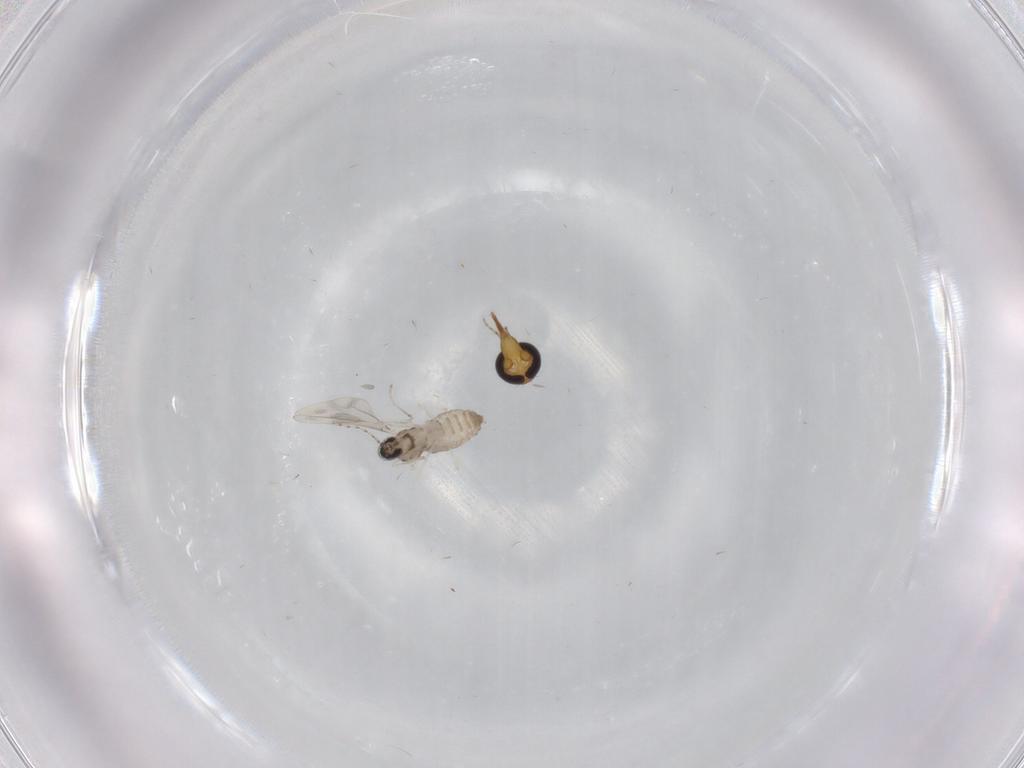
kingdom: Animalia
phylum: Arthropoda
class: Insecta
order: Diptera
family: Cecidomyiidae
